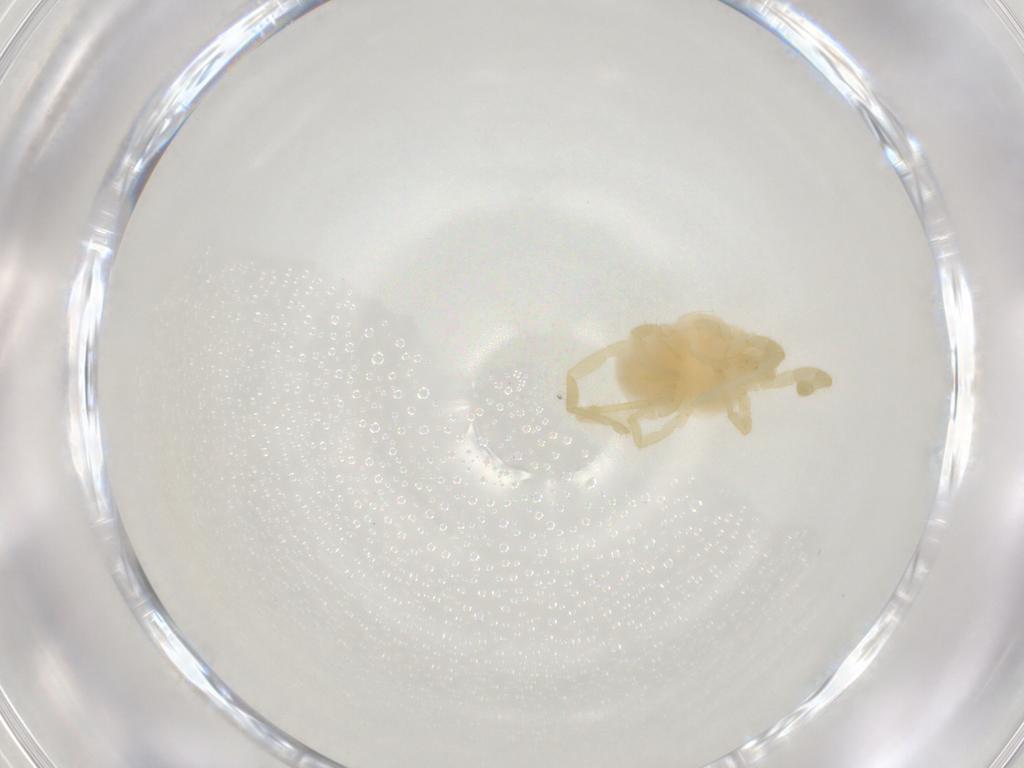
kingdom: Animalia
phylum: Arthropoda
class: Arachnida
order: Trombidiformes
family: Erythraeidae
